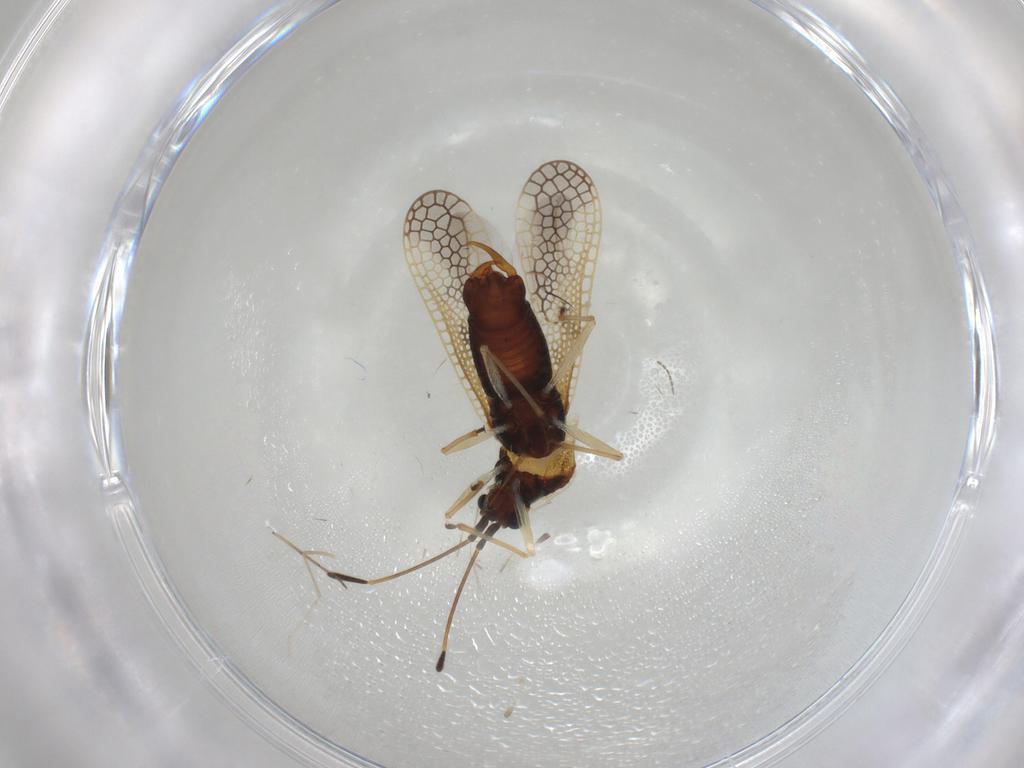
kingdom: Animalia
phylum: Arthropoda
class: Insecta
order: Hemiptera
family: Tingidae
